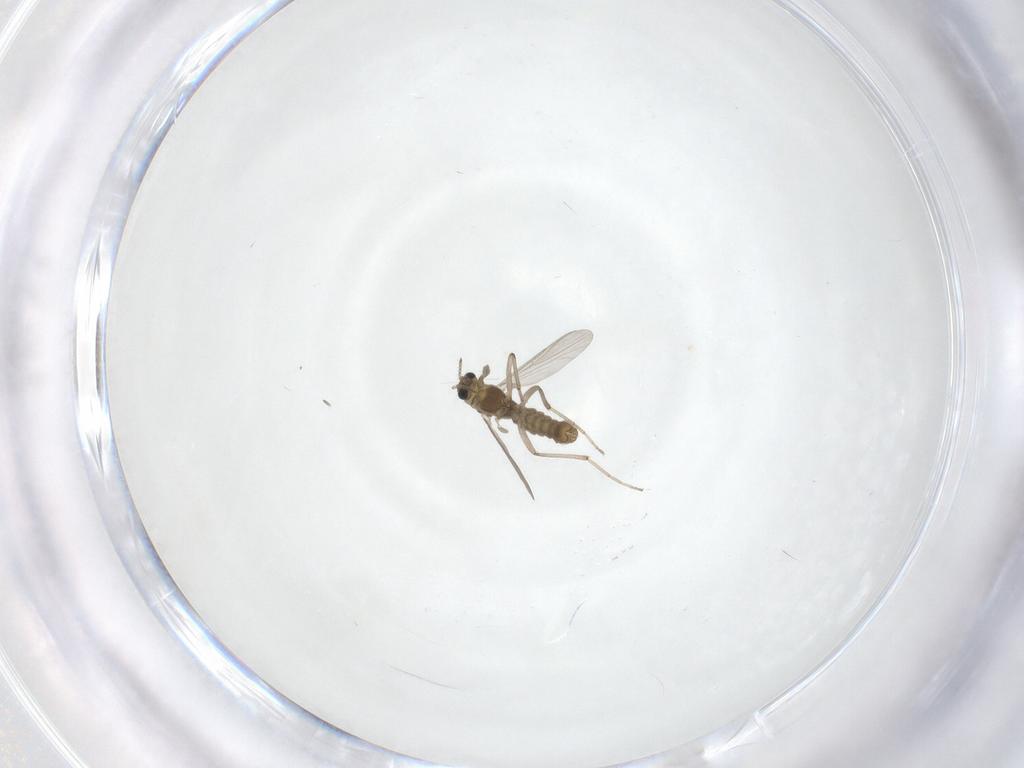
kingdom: Animalia
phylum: Arthropoda
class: Insecta
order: Diptera
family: Chironomidae
